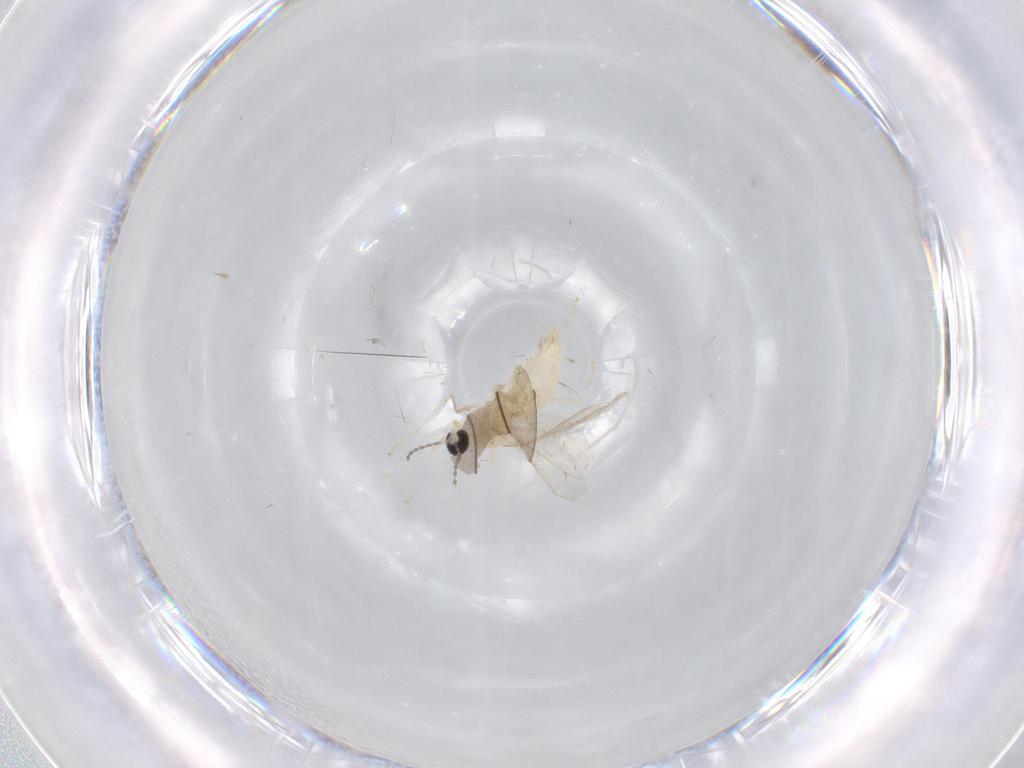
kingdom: Animalia
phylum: Arthropoda
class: Insecta
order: Diptera
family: Cecidomyiidae
